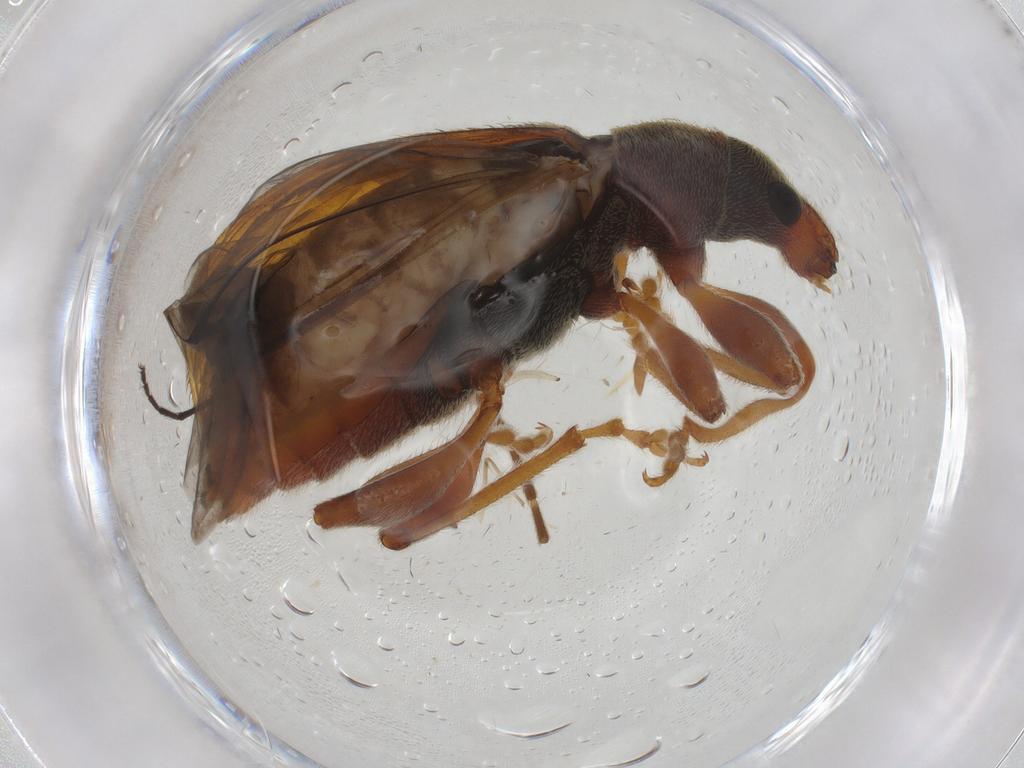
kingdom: Animalia
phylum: Arthropoda
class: Insecta
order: Coleoptera
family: Curculionidae
